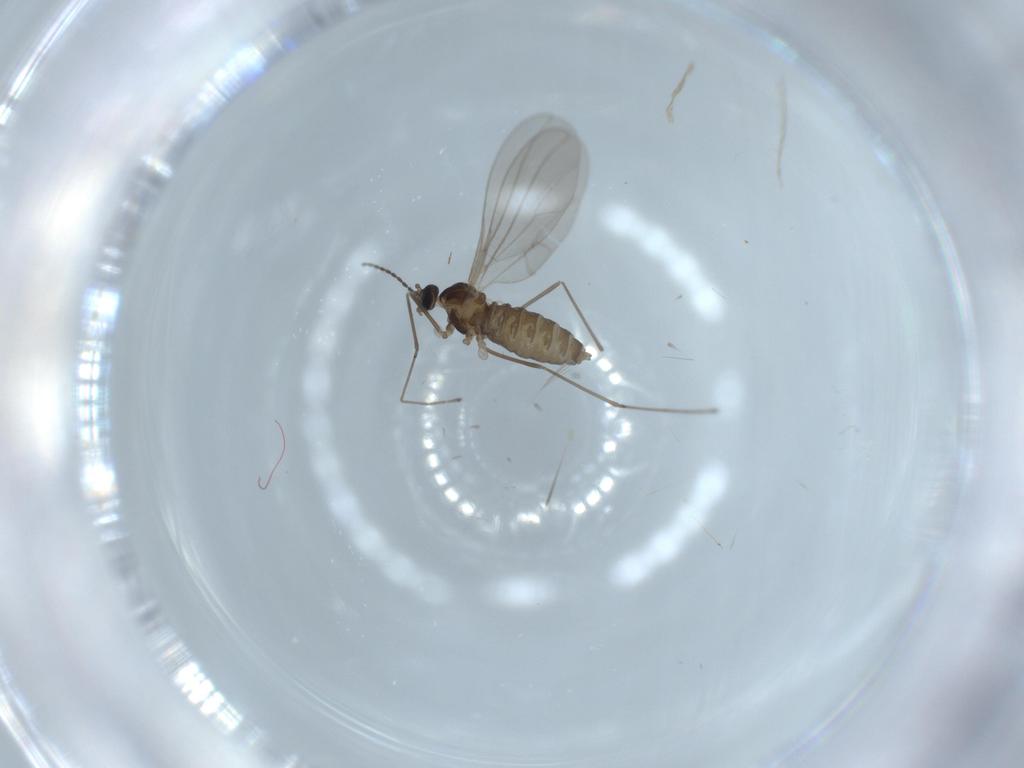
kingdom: Animalia
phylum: Arthropoda
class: Insecta
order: Diptera
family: Cecidomyiidae
